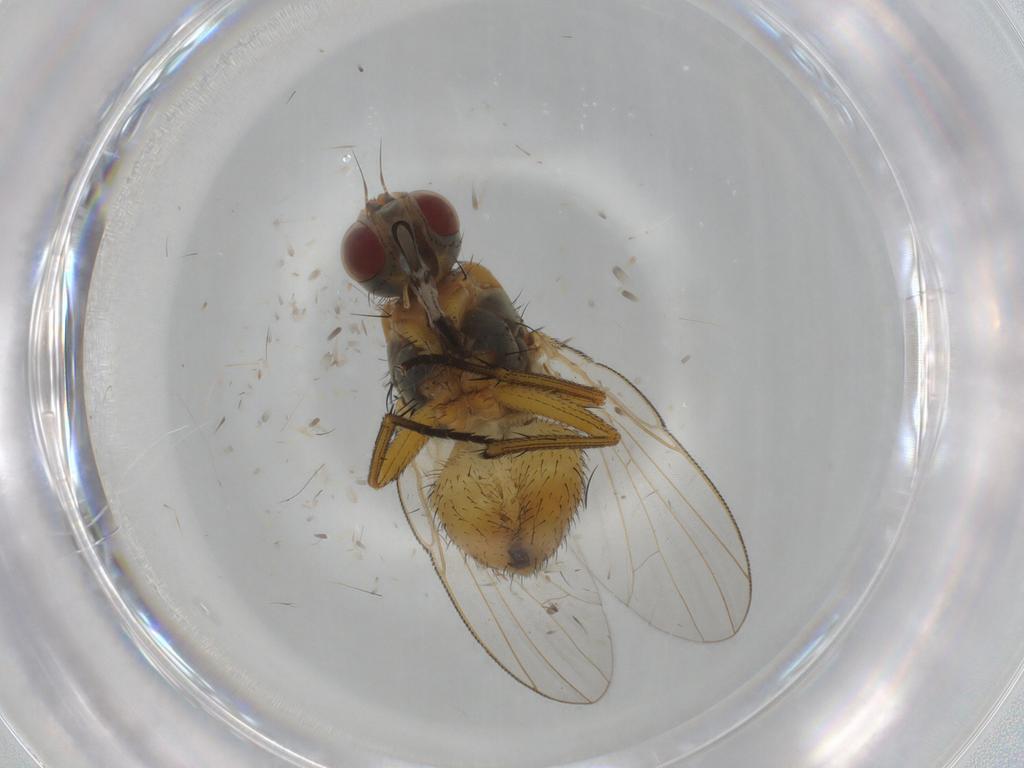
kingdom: Animalia
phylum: Arthropoda
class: Insecta
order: Diptera
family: Muscidae
